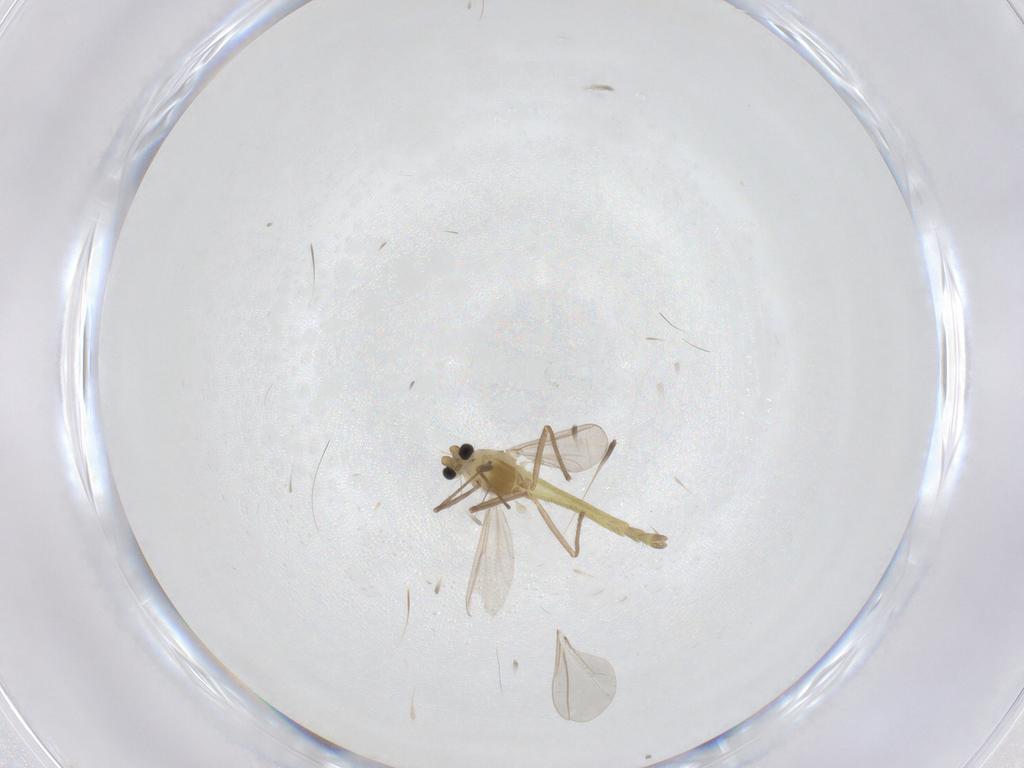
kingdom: Animalia
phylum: Arthropoda
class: Insecta
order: Diptera
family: Chironomidae
